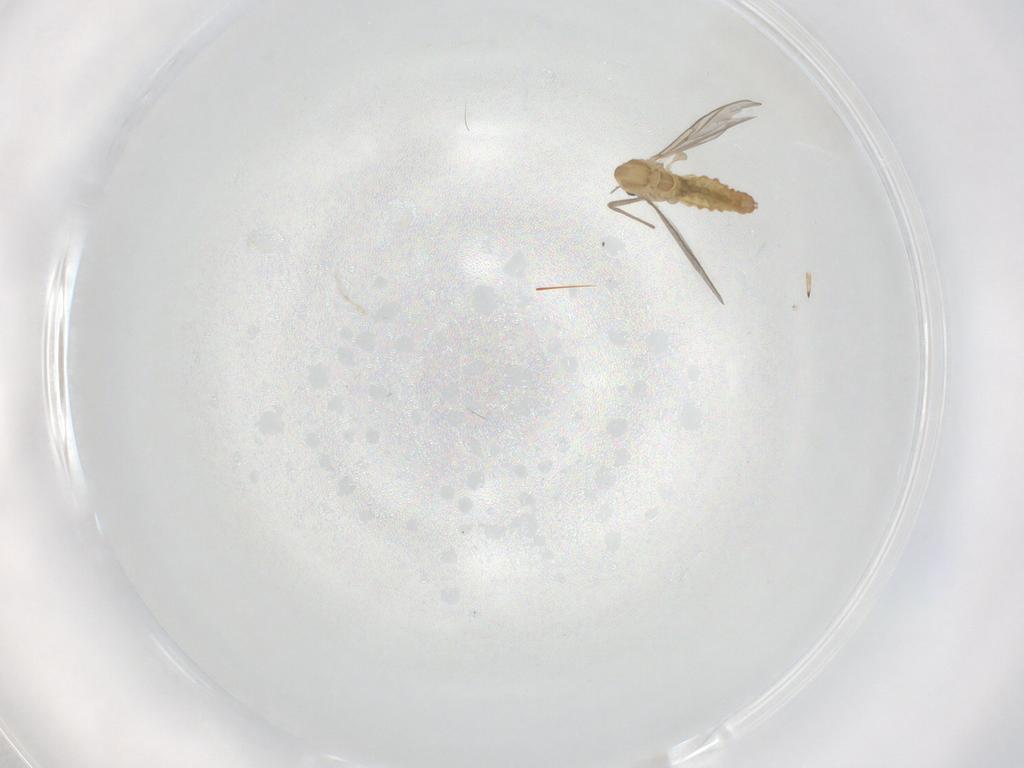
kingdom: Animalia
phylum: Arthropoda
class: Insecta
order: Diptera
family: Chironomidae
